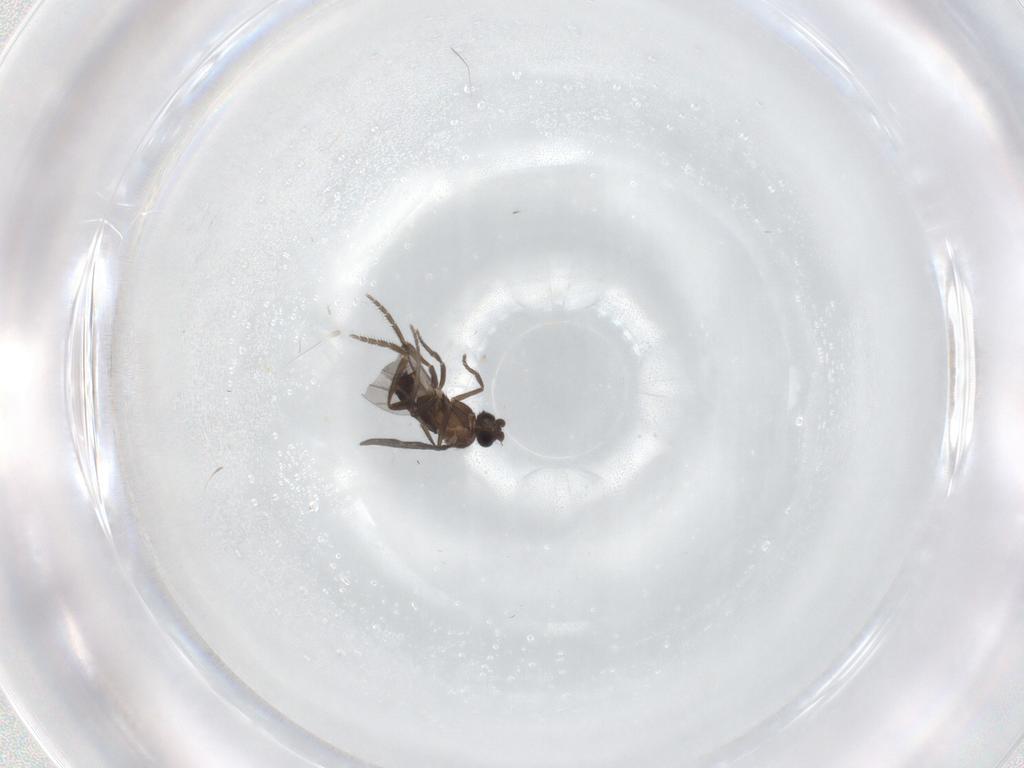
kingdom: Animalia
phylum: Arthropoda
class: Insecta
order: Diptera
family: Phoridae
